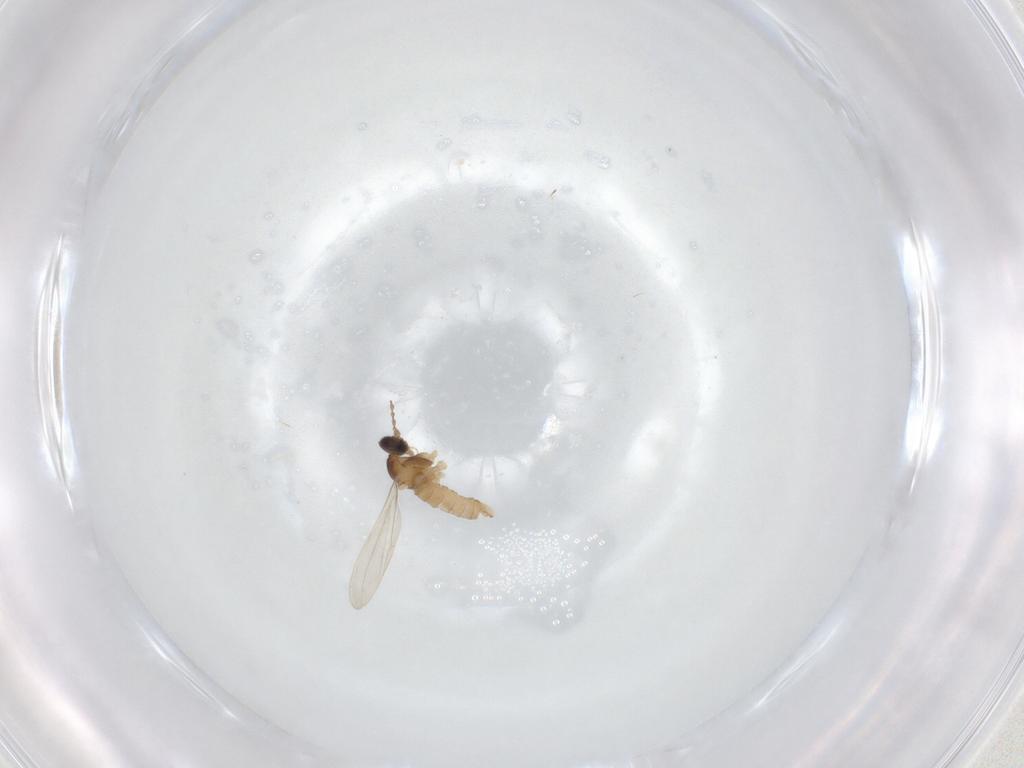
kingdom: Animalia
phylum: Arthropoda
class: Insecta
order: Diptera
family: Cecidomyiidae
